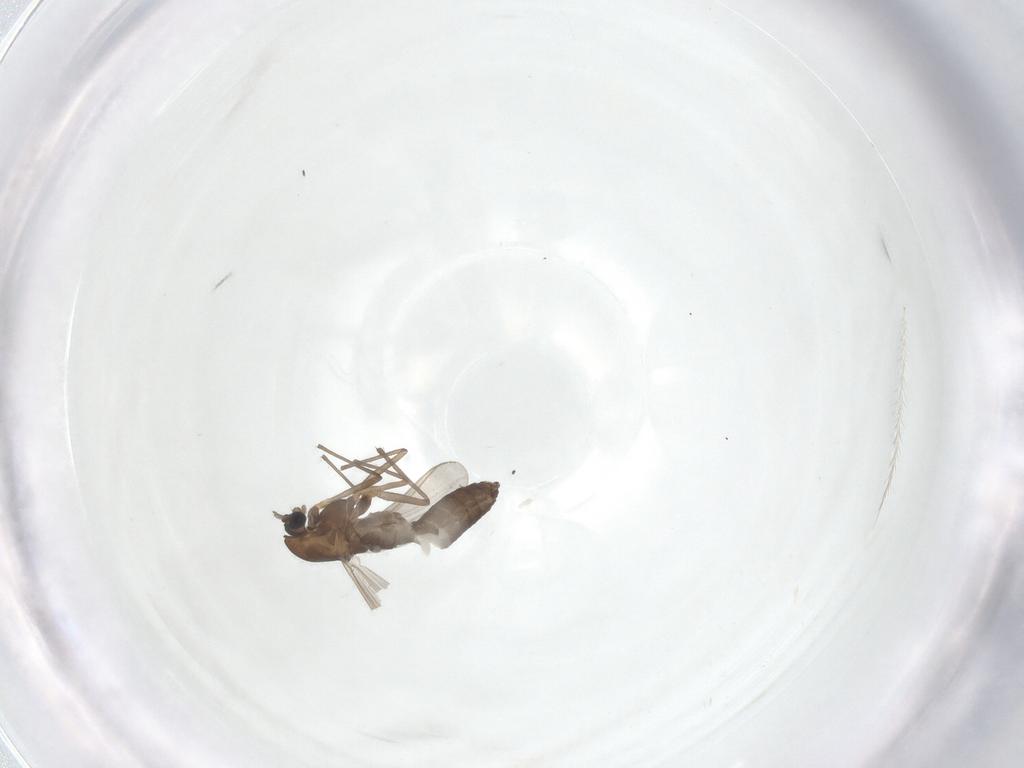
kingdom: Animalia
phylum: Arthropoda
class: Insecta
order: Diptera
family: Chironomidae
